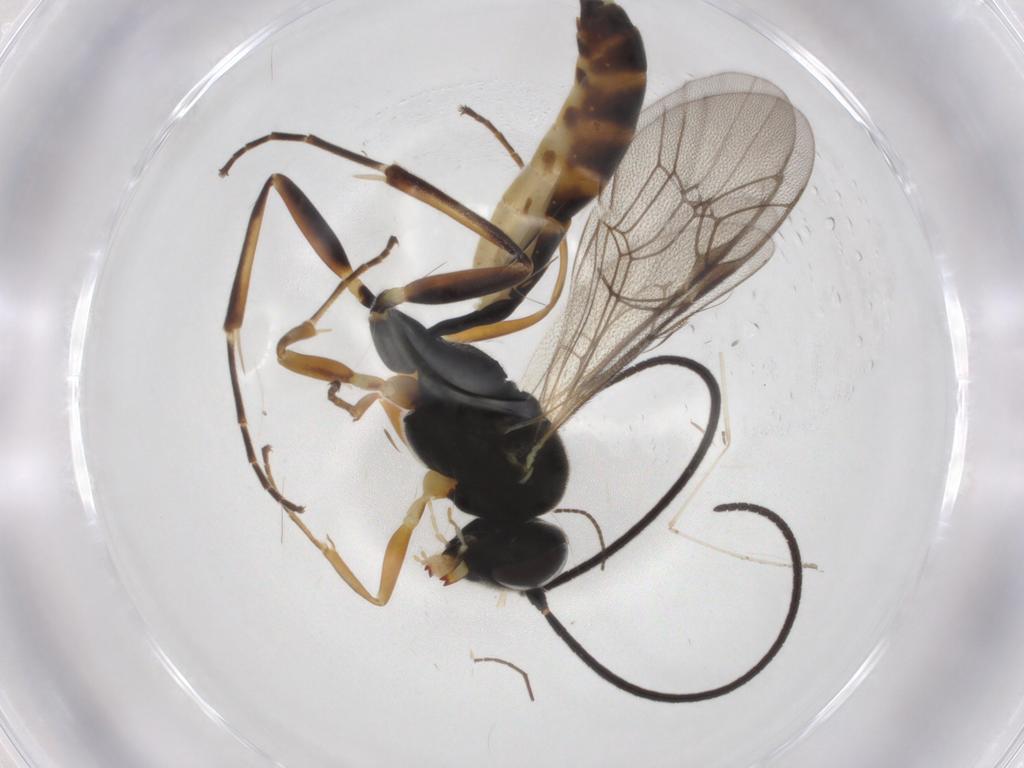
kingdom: Animalia
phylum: Arthropoda
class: Insecta
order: Hymenoptera
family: Ichneumonidae
